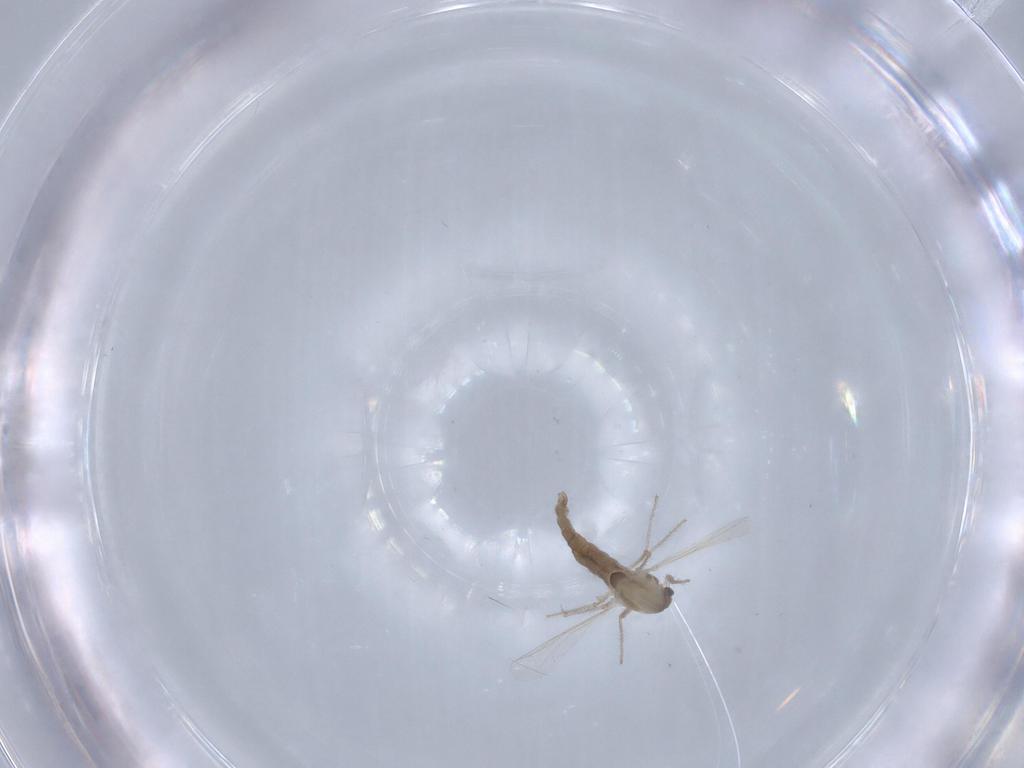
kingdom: Animalia
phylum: Arthropoda
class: Insecta
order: Diptera
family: Chironomidae
